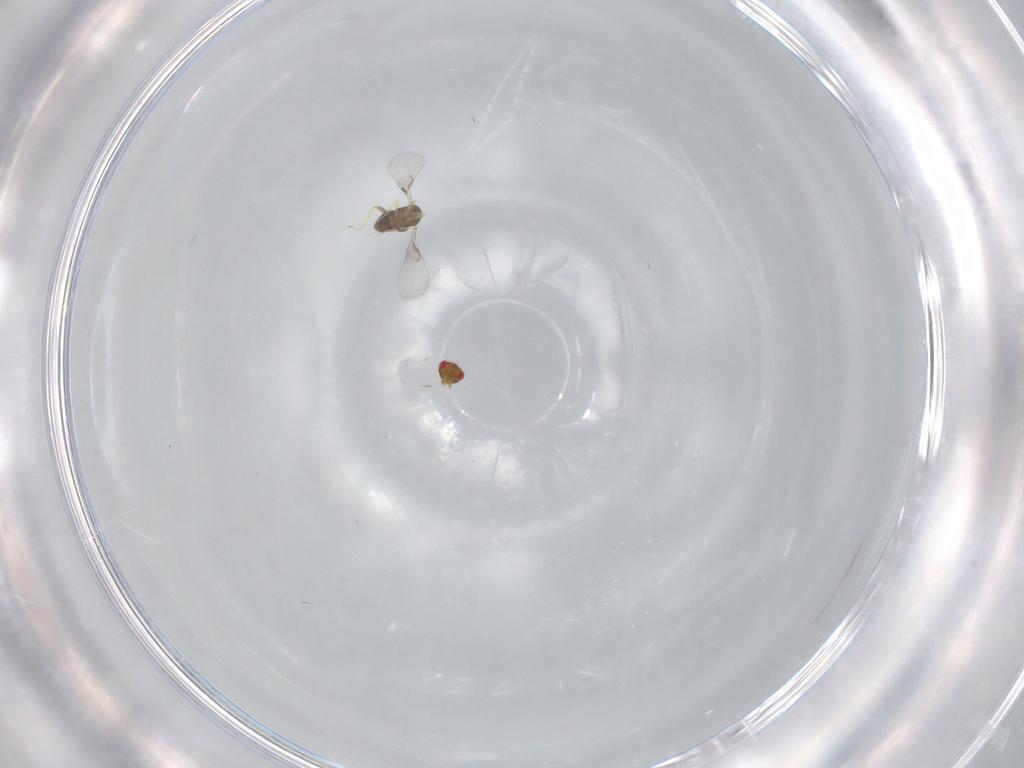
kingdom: Animalia
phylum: Arthropoda
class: Insecta
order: Hymenoptera
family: Trichogrammatidae
